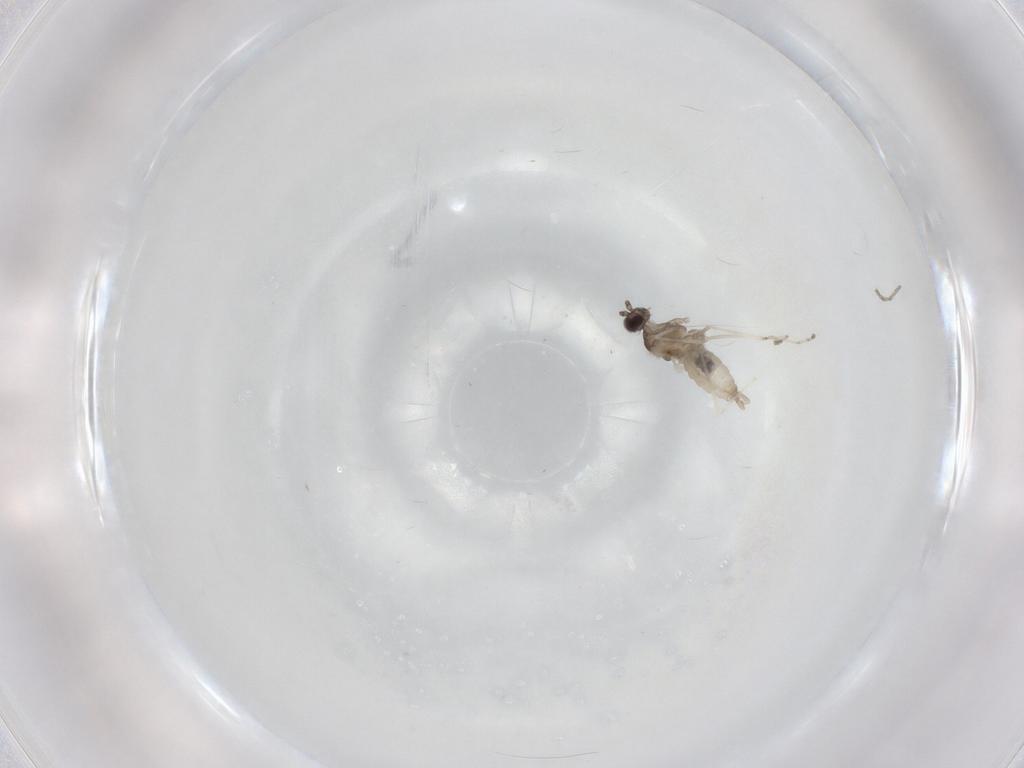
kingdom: Animalia
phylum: Arthropoda
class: Insecta
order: Diptera
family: Cecidomyiidae
